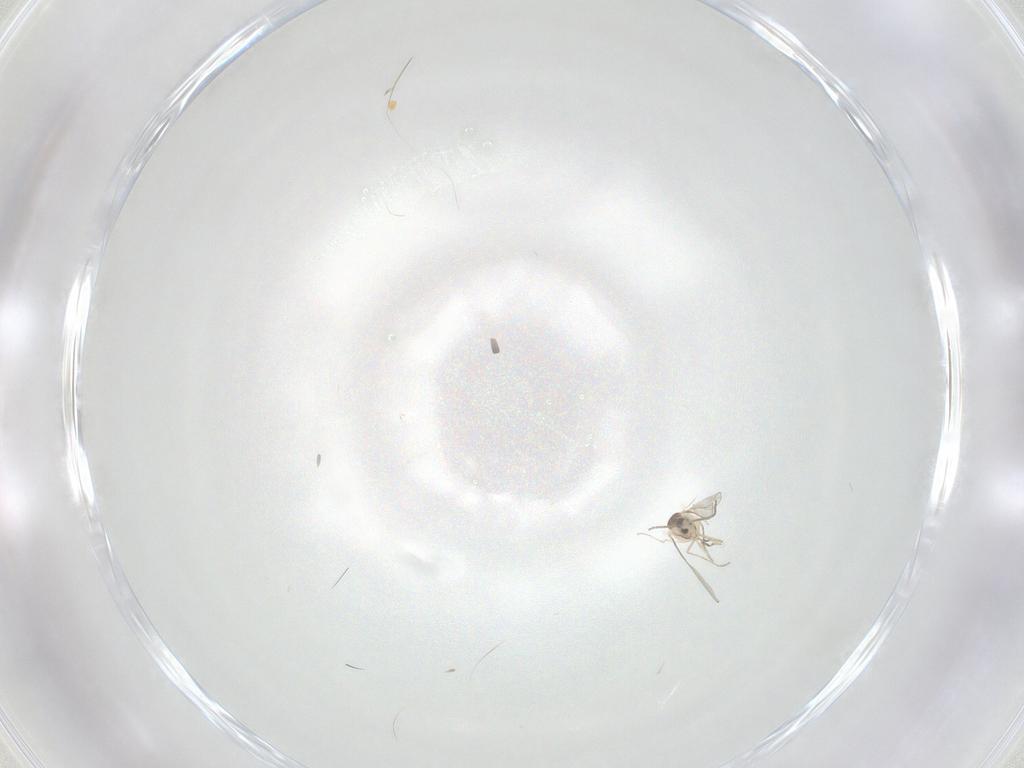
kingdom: Animalia
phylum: Arthropoda
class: Insecta
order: Diptera
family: Cecidomyiidae
